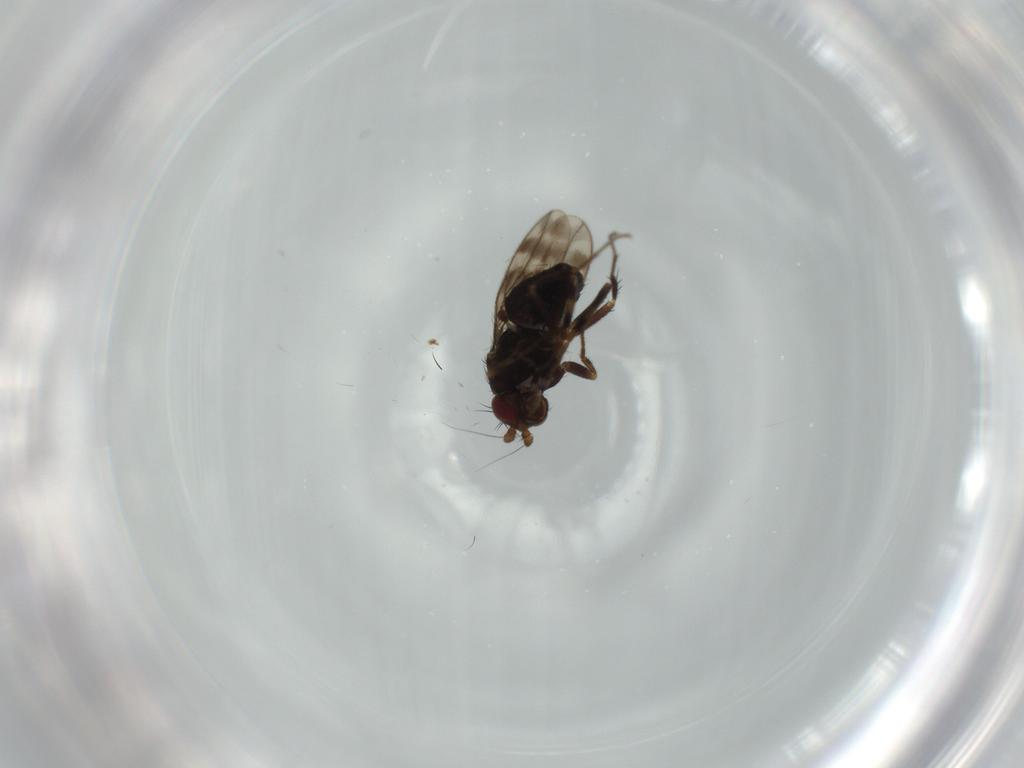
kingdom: Animalia
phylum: Arthropoda
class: Insecta
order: Diptera
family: Sphaeroceridae
